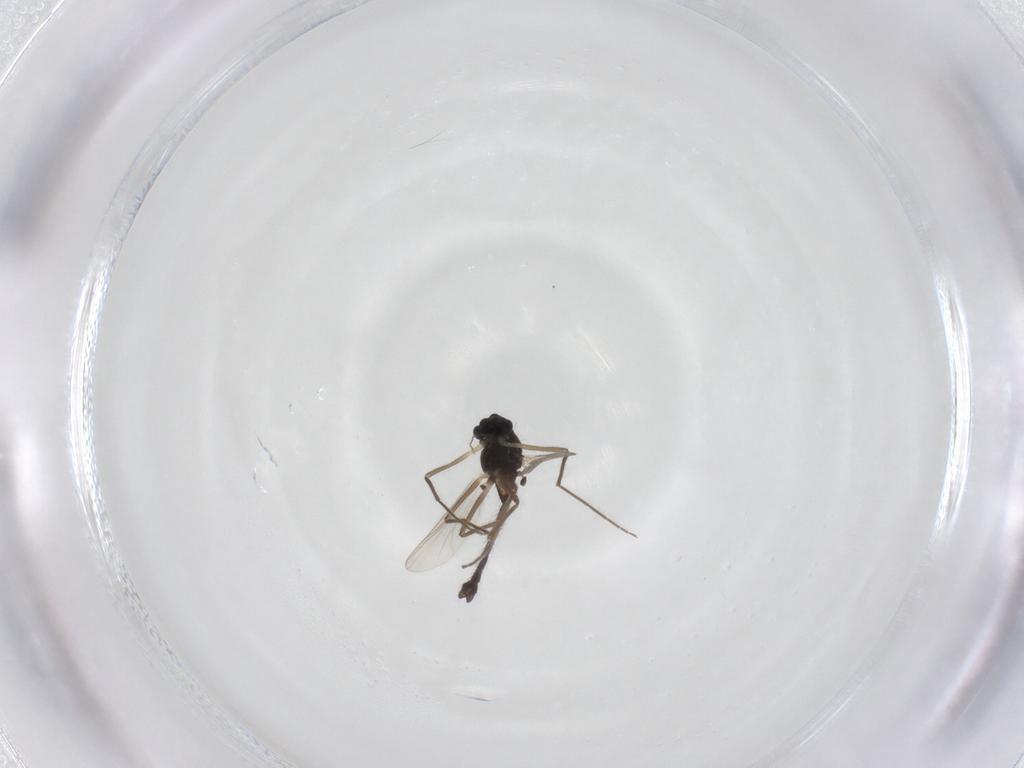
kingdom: Animalia
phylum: Arthropoda
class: Insecta
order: Diptera
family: Chironomidae
